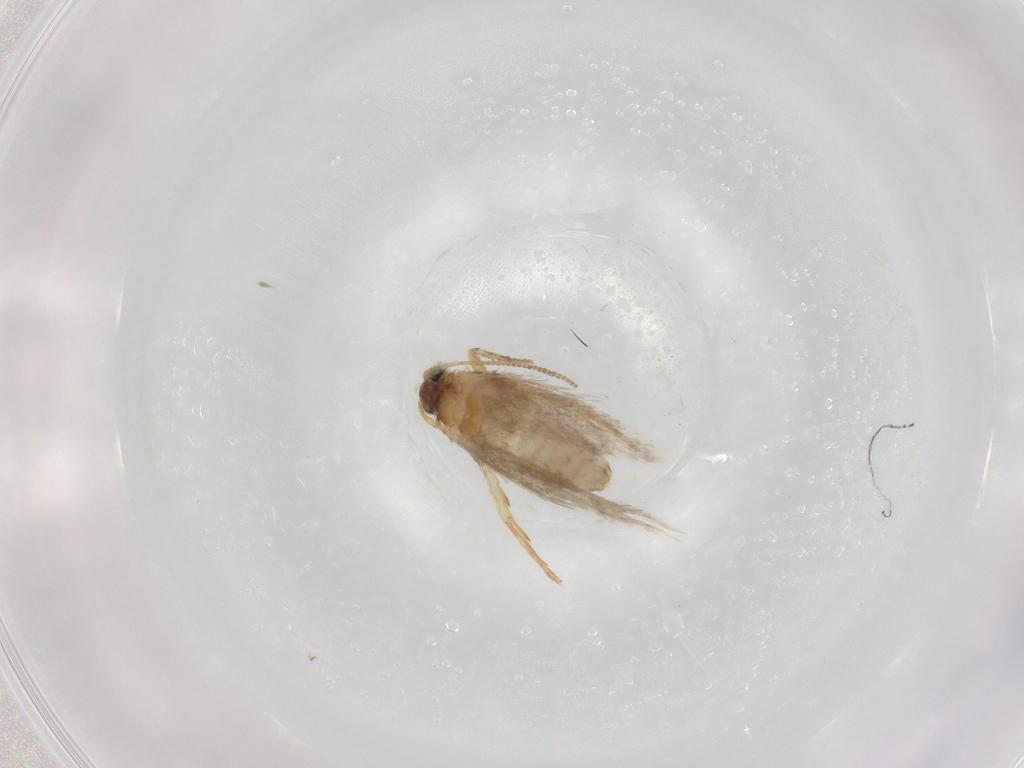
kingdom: Animalia
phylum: Arthropoda
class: Insecta
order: Lepidoptera
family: Nepticulidae
